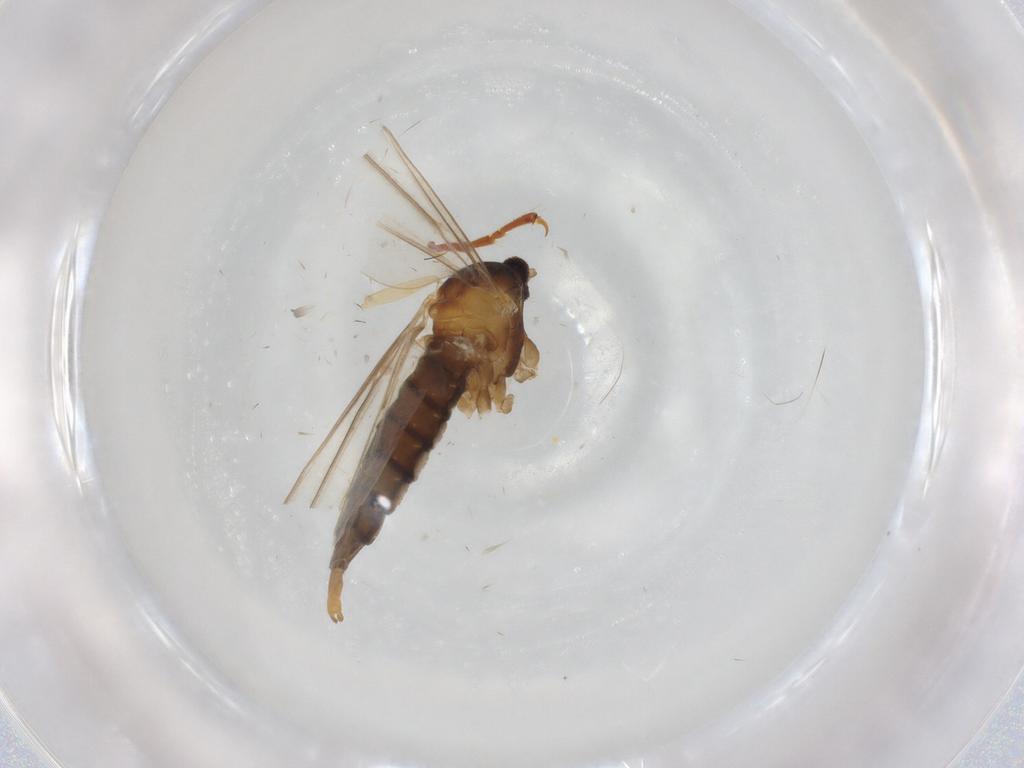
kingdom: Animalia
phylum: Arthropoda
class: Insecta
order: Diptera
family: Cecidomyiidae
